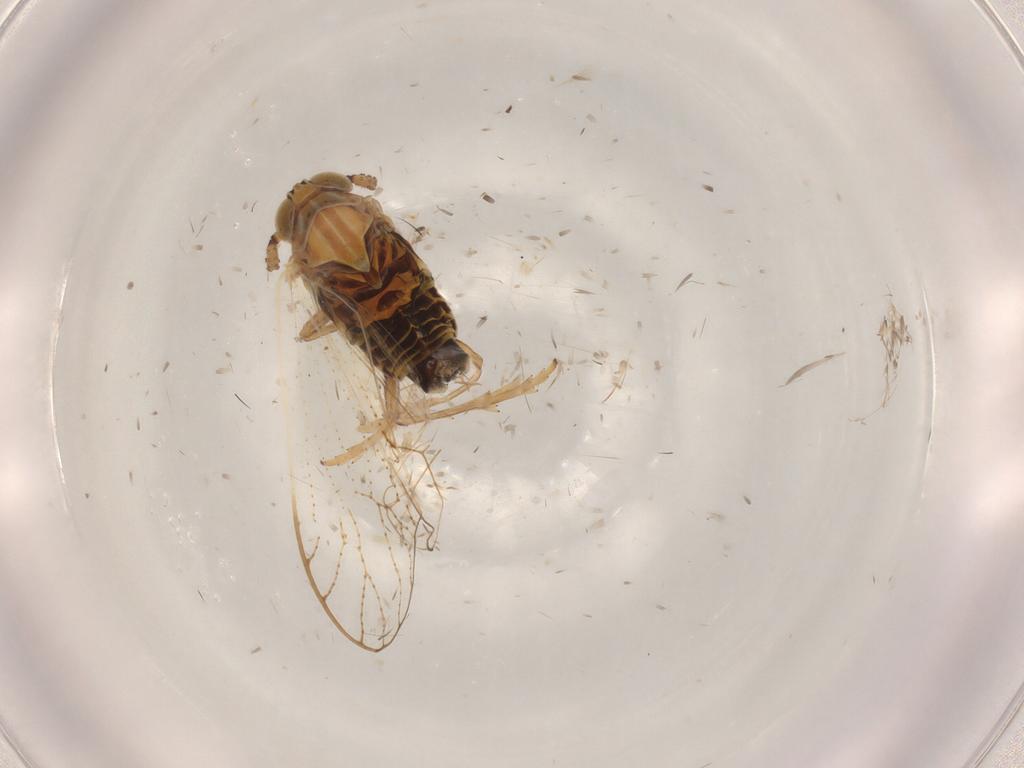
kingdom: Animalia
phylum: Arthropoda
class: Insecta
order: Hemiptera
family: Delphacidae
